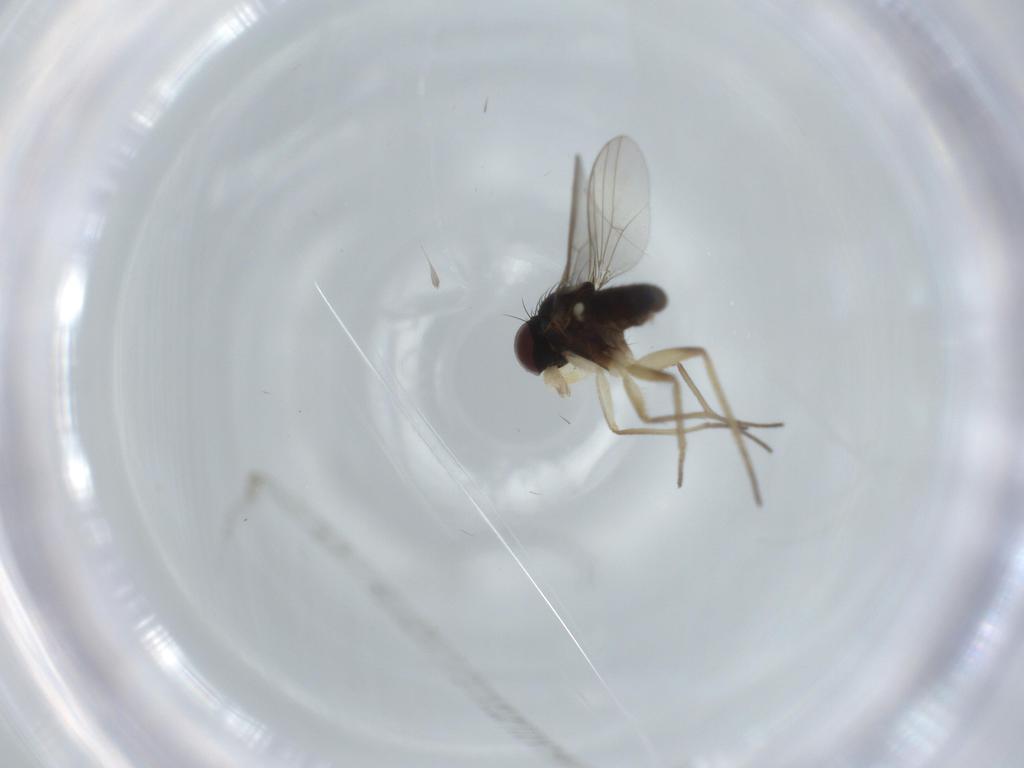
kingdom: Animalia
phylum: Arthropoda
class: Insecta
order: Diptera
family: Dolichopodidae
